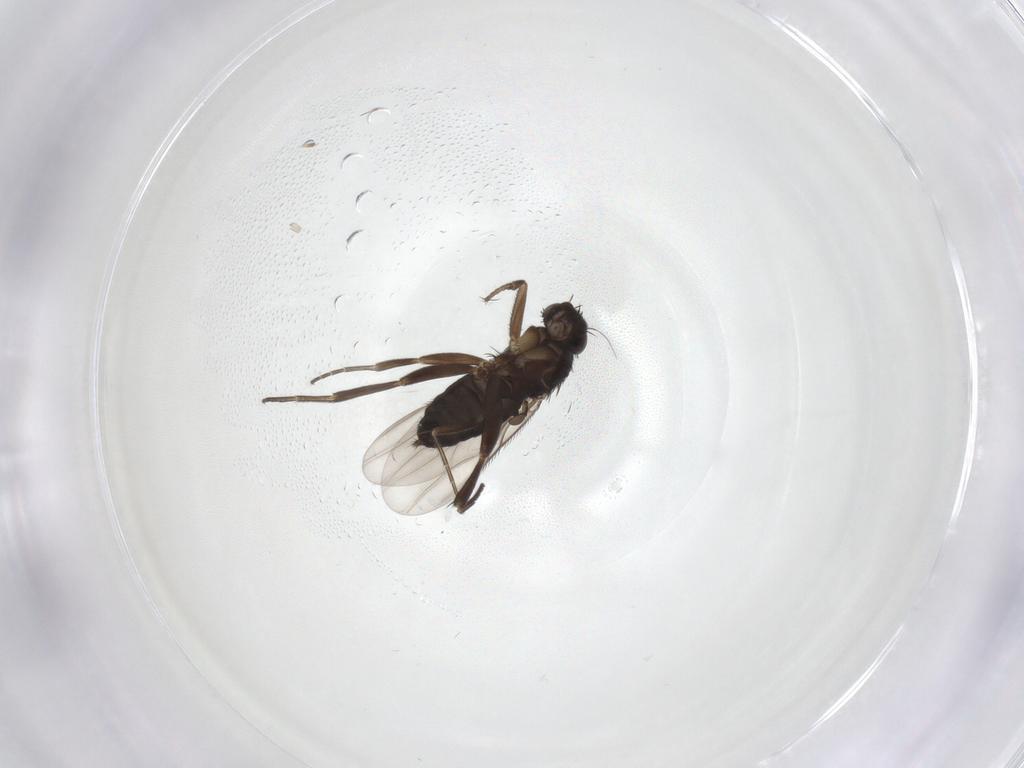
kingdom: Animalia
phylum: Arthropoda
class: Insecta
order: Diptera
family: Phoridae
